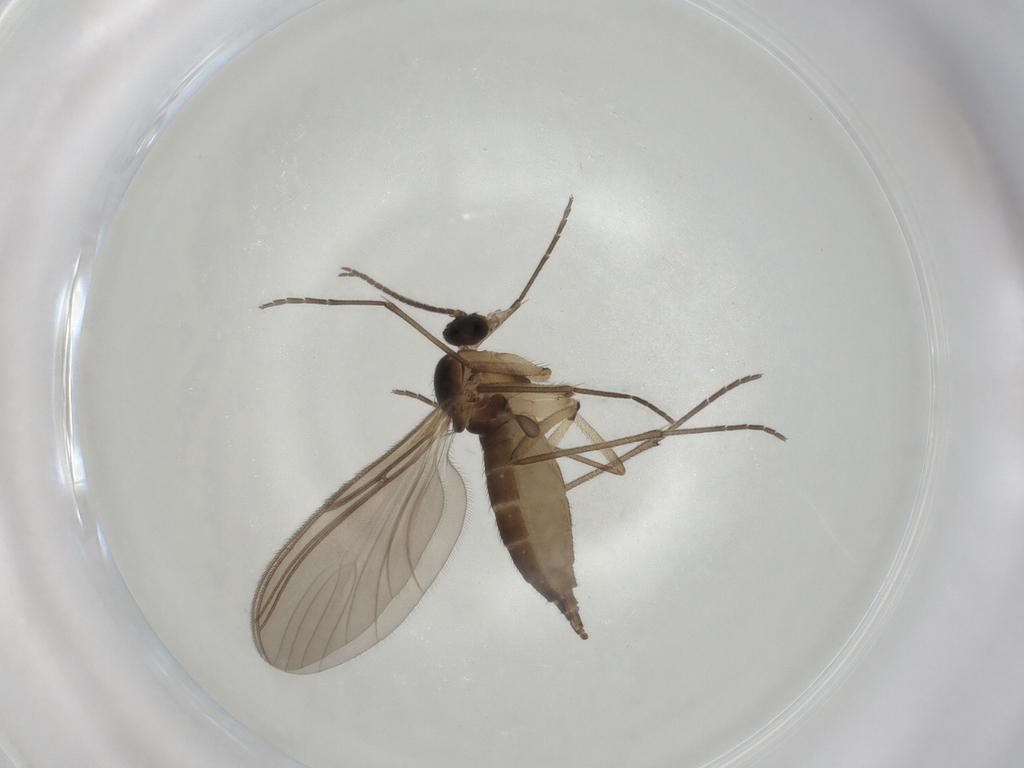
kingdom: Animalia
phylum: Arthropoda
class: Insecta
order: Diptera
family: Sciaridae
